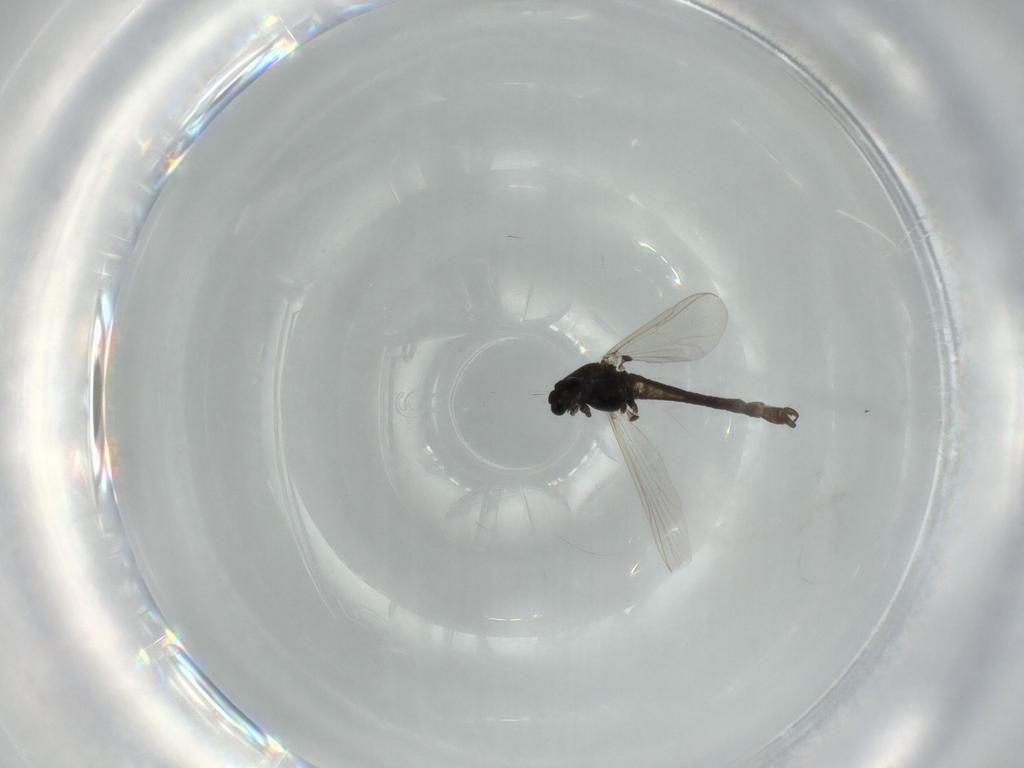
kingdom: Animalia
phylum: Arthropoda
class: Insecta
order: Diptera
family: Chironomidae
